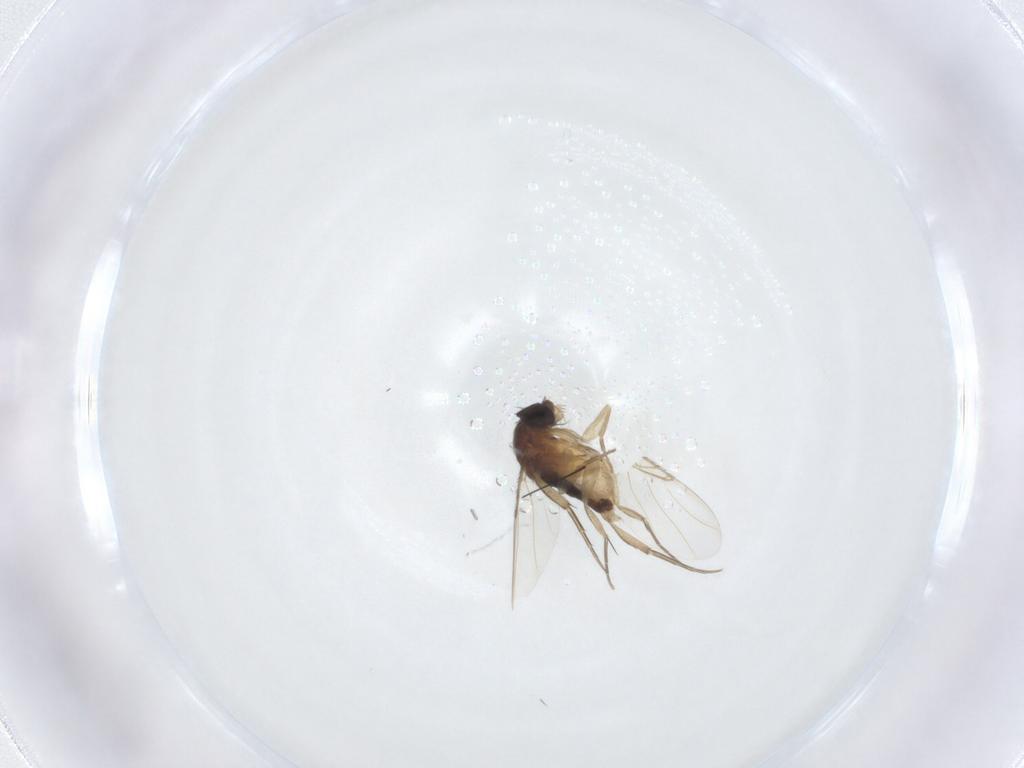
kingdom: Animalia
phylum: Arthropoda
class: Insecta
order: Diptera
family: Phoridae
